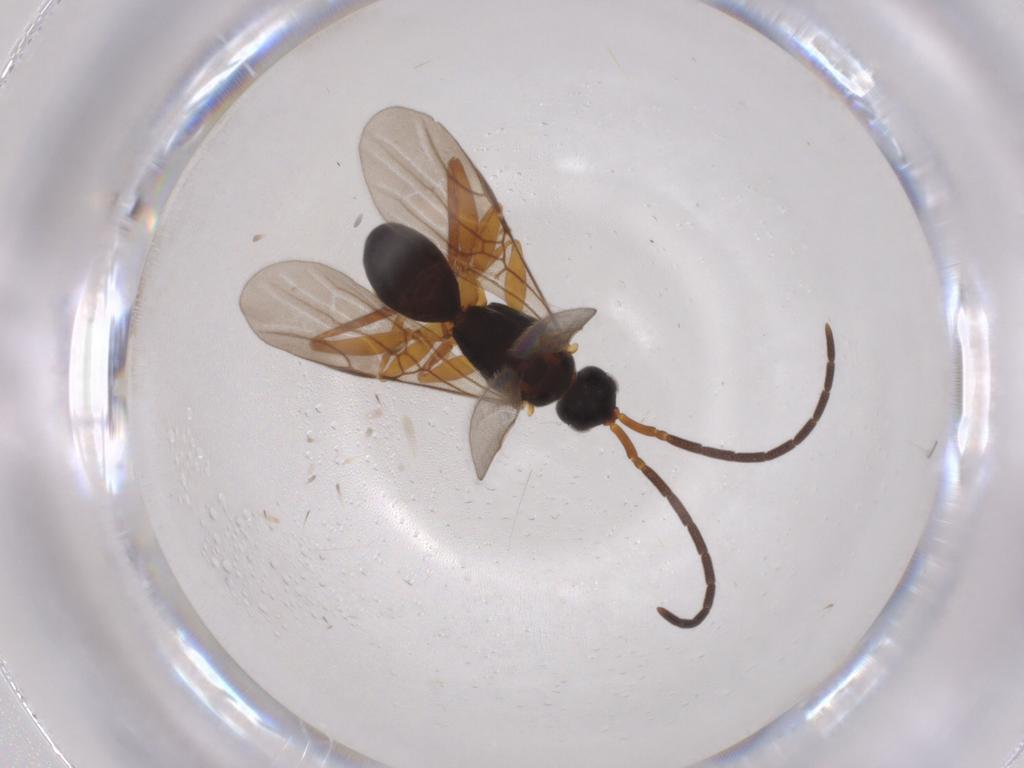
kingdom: Animalia
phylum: Arthropoda
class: Insecta
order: Hymenoptera
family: Embolemidae
